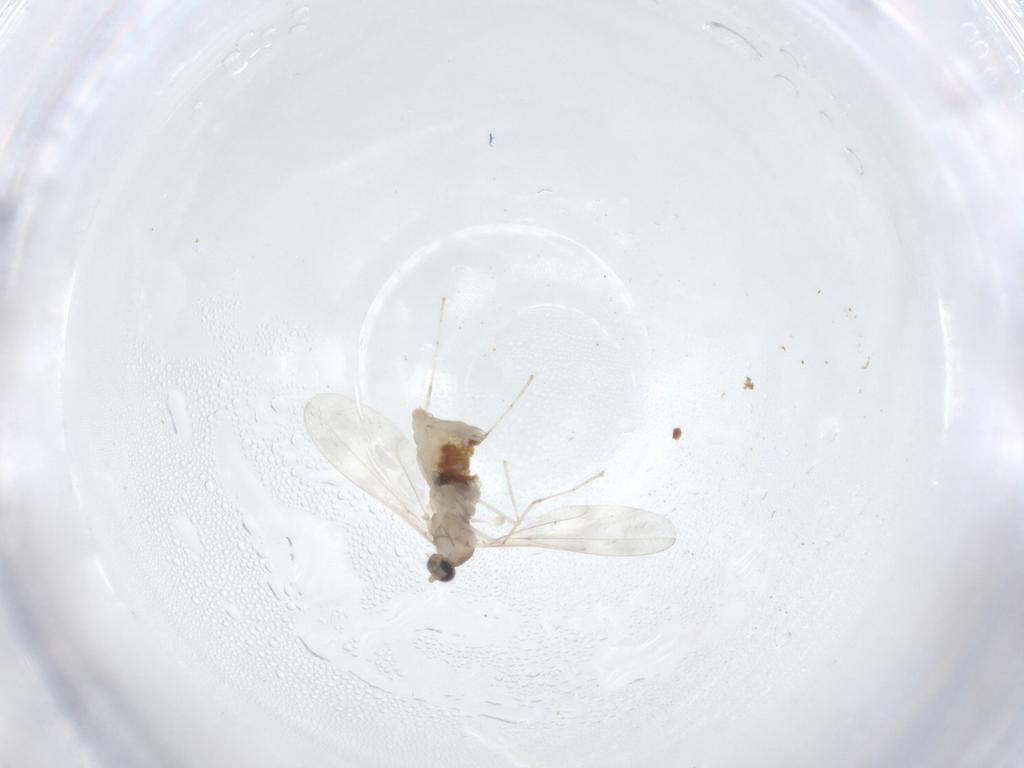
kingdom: Animalia
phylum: Arthropoda
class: Insecta
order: Diptera
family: Cecidomyiidae
